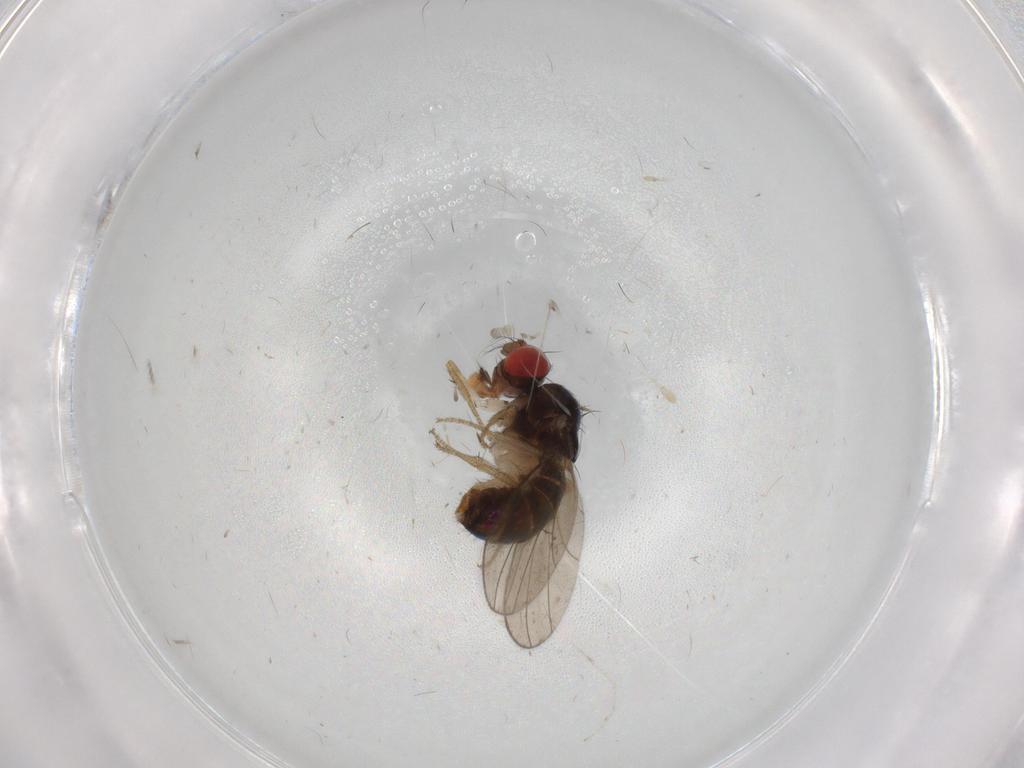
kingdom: Animalia
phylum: Arthropoda
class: Insecta
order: Diptera
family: Drosophilidae
